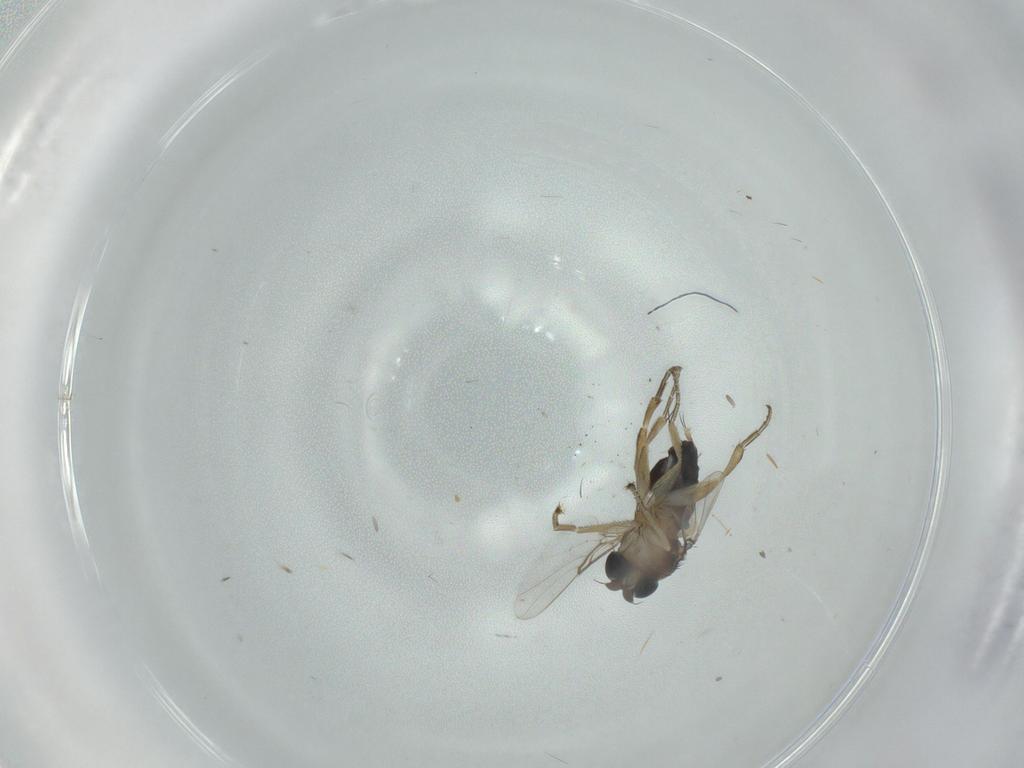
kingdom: Animalia
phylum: Arthropoda
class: Insecta
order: Diptera
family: Phoridae
